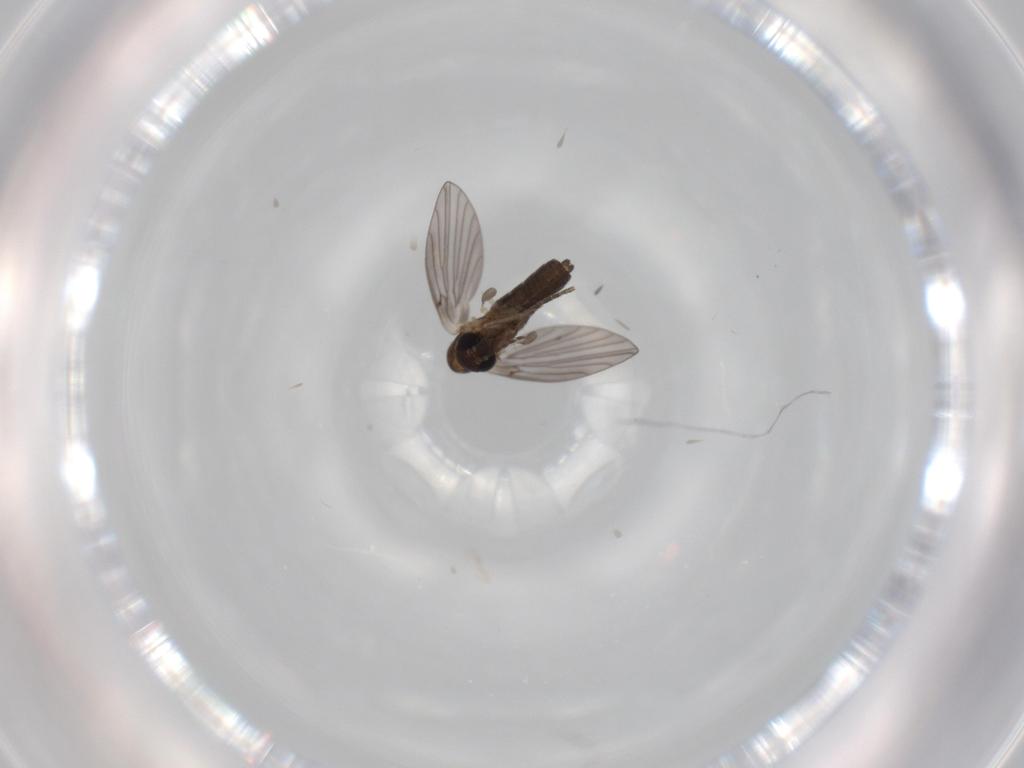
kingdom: Animalia
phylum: Arthropoda
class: Insecta
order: Diptera
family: Psychodidae
